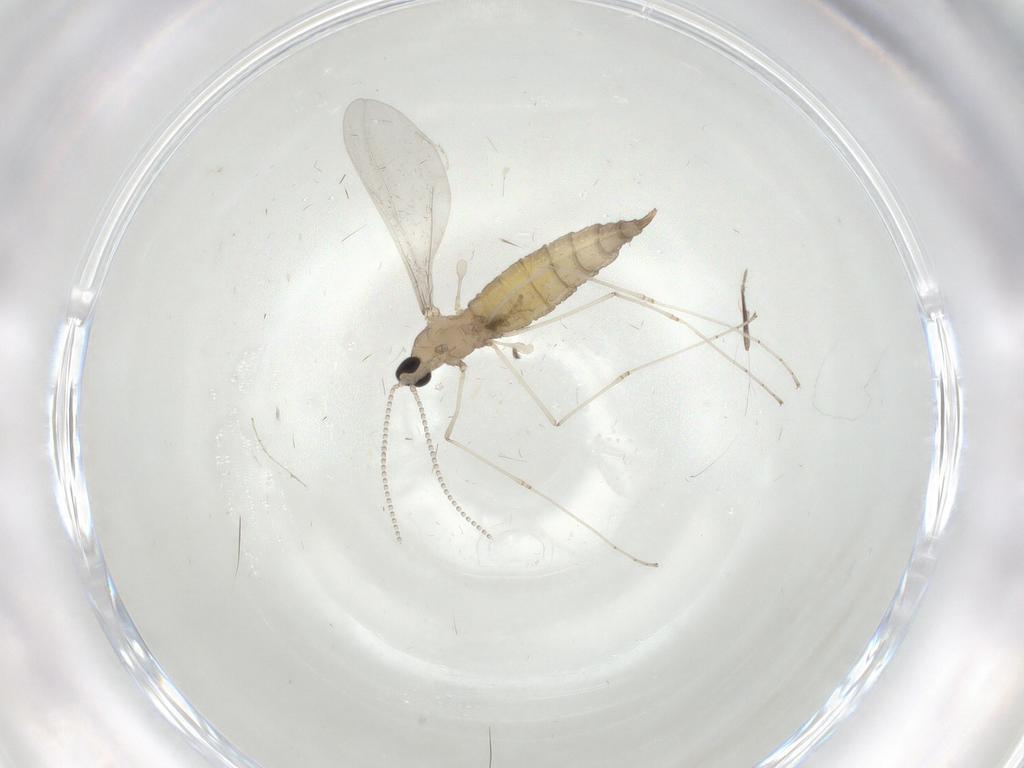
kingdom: Animalia
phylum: Arthropoda
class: Insecta
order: Diptera
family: Cecidomyiidae
